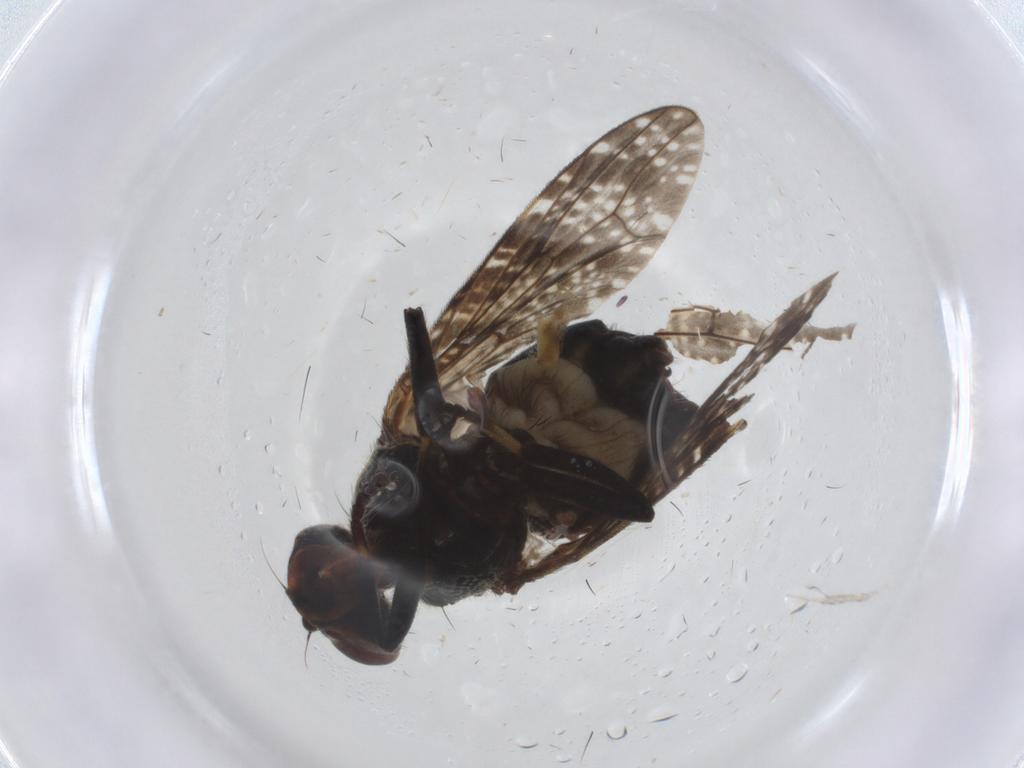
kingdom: Animalia
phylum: Arthropoda
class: Insecta
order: Diptera
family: Platystomatidae
